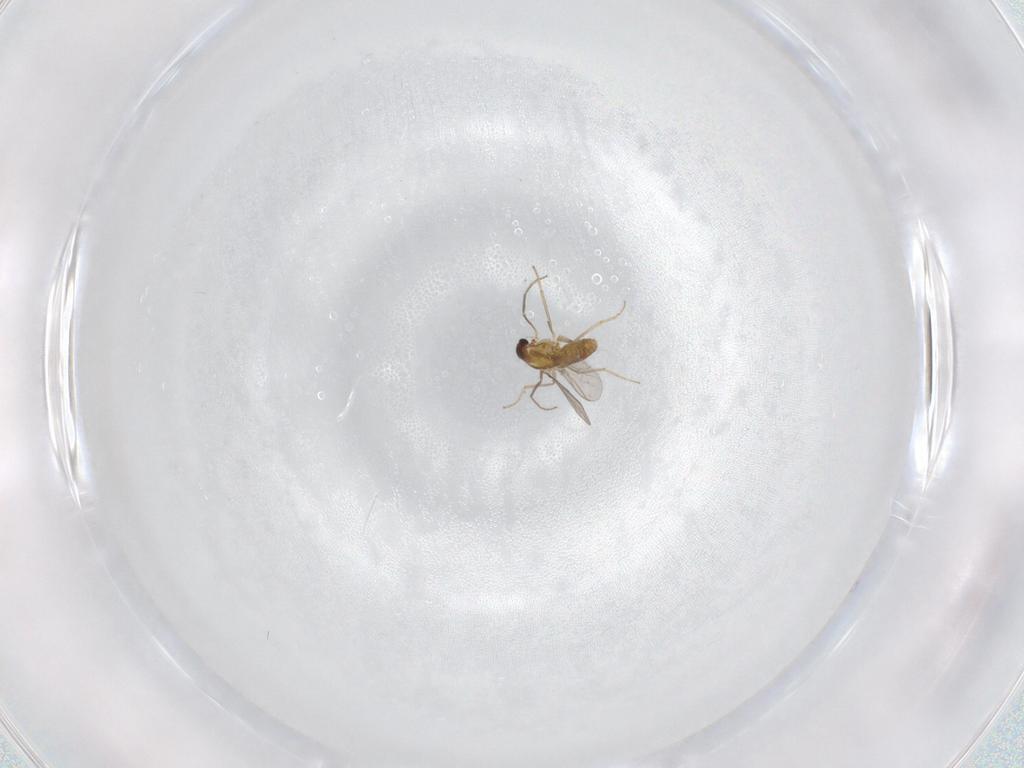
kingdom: Animalia
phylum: Arthropoda
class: Insecta
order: Diptera
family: Chironomidae
